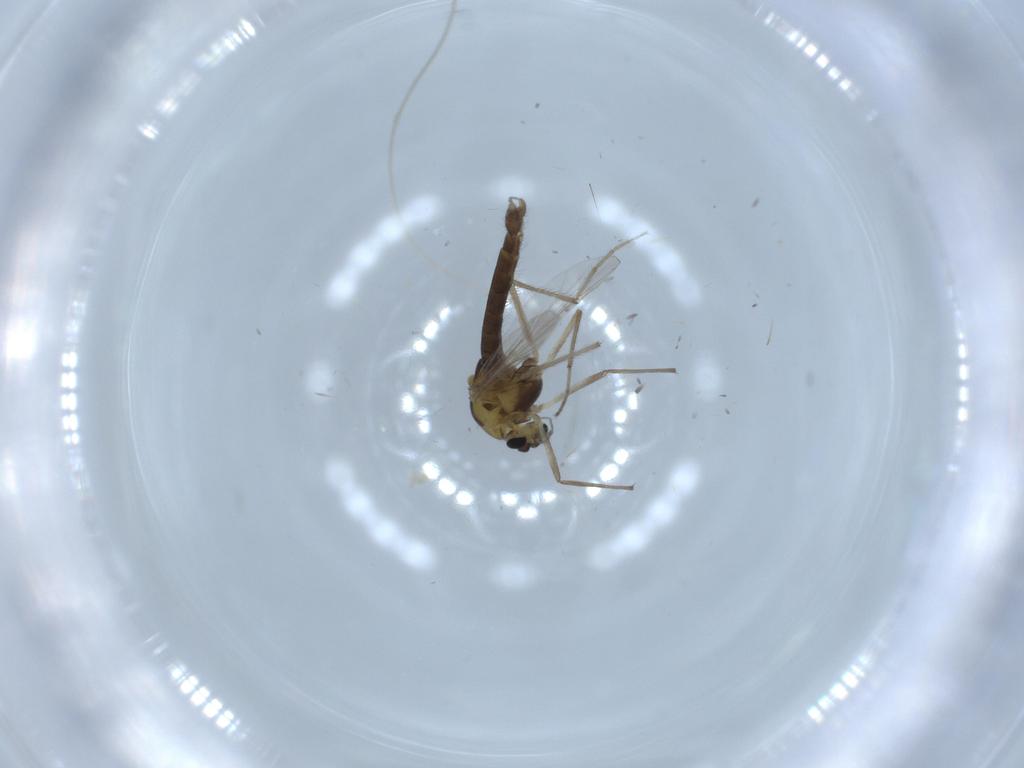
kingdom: Animalia
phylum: Arthropoda
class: Insecta
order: Diptera
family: Chironomidae
